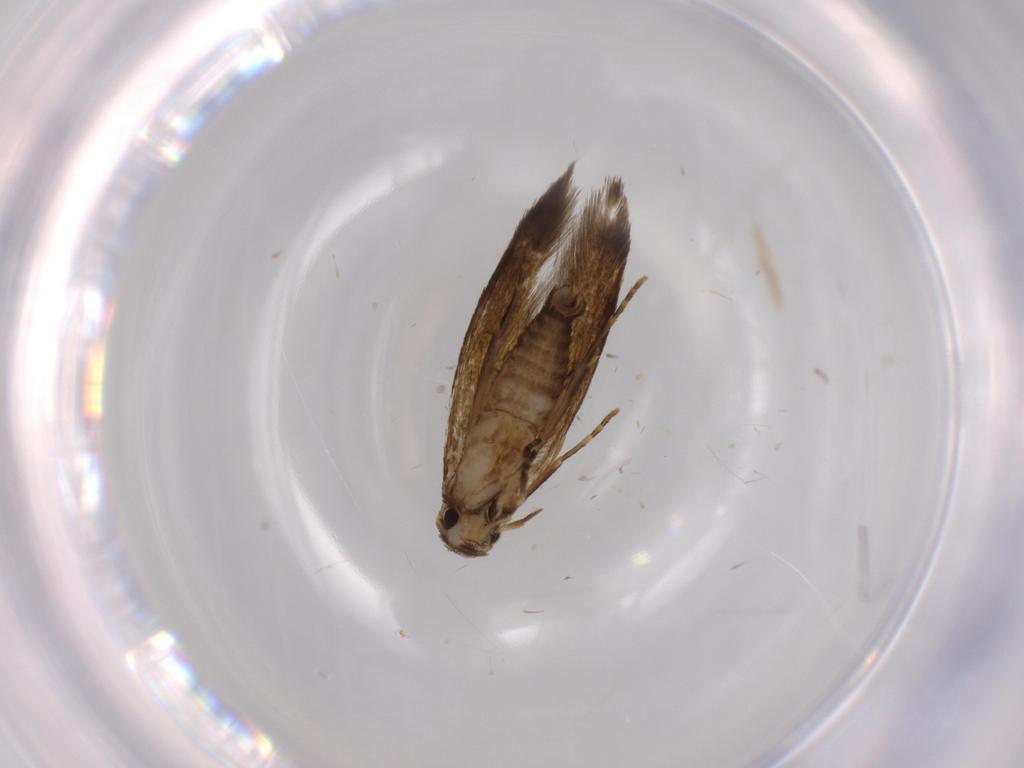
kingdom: Animalia
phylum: Arthropoda
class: Insecta
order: Lepidoptera
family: Tineidae
